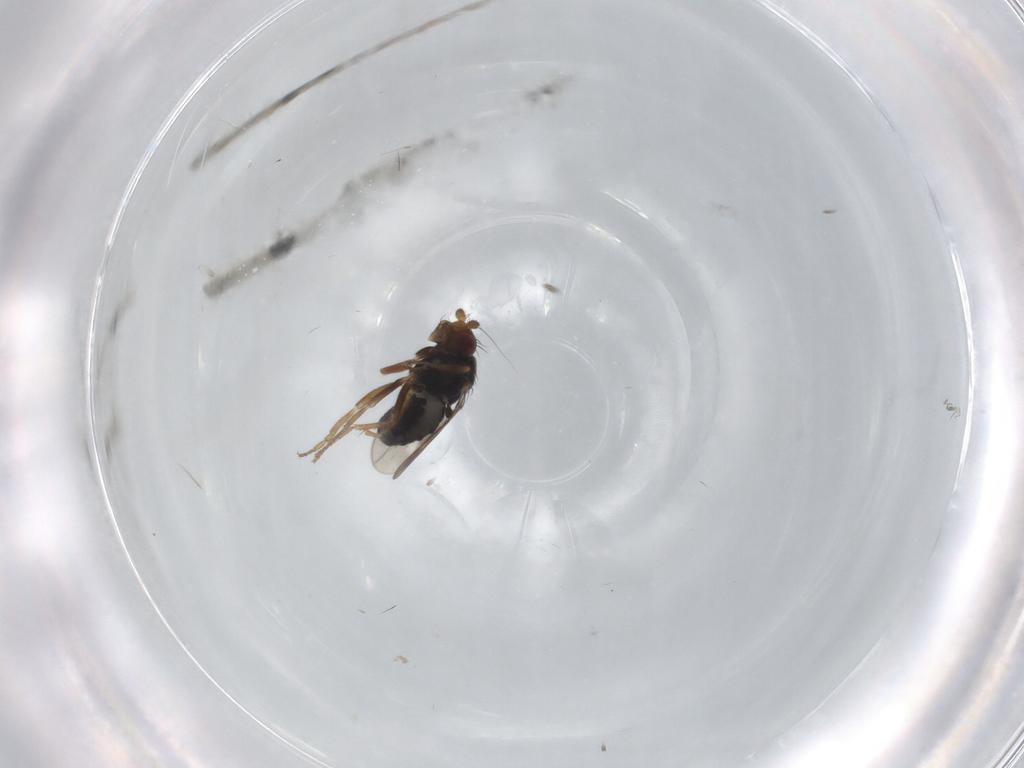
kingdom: Animalia
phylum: Arthropoda
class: Insecta
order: Diptera
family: Sphaeroceridae
